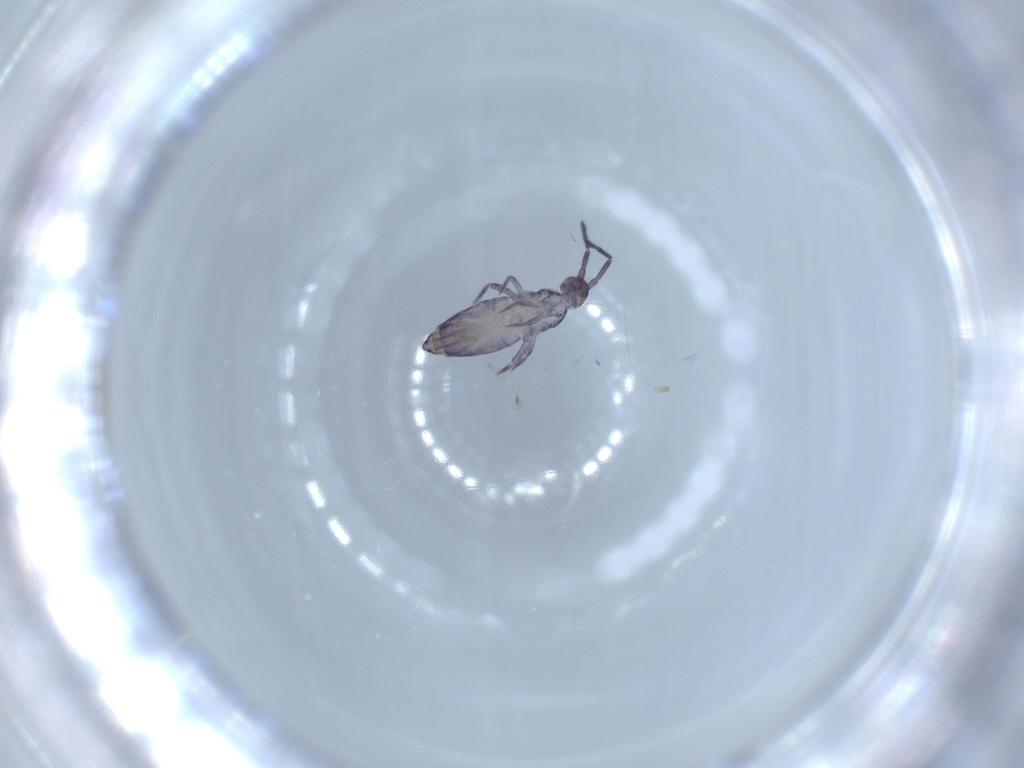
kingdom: Animalia
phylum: Arthropoda
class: Collembola
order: Entomobryomorpha
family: Entomobryidae
